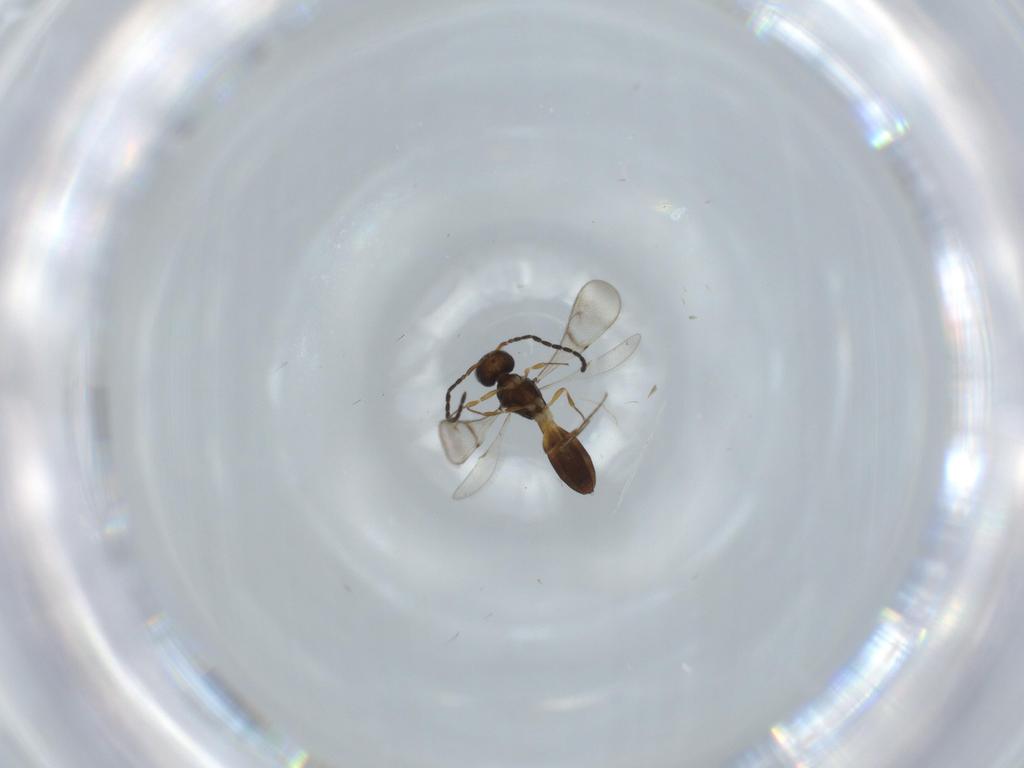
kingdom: Animalia
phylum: Arthropoda
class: Insecta
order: Hymenoptera
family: Scelionidae
